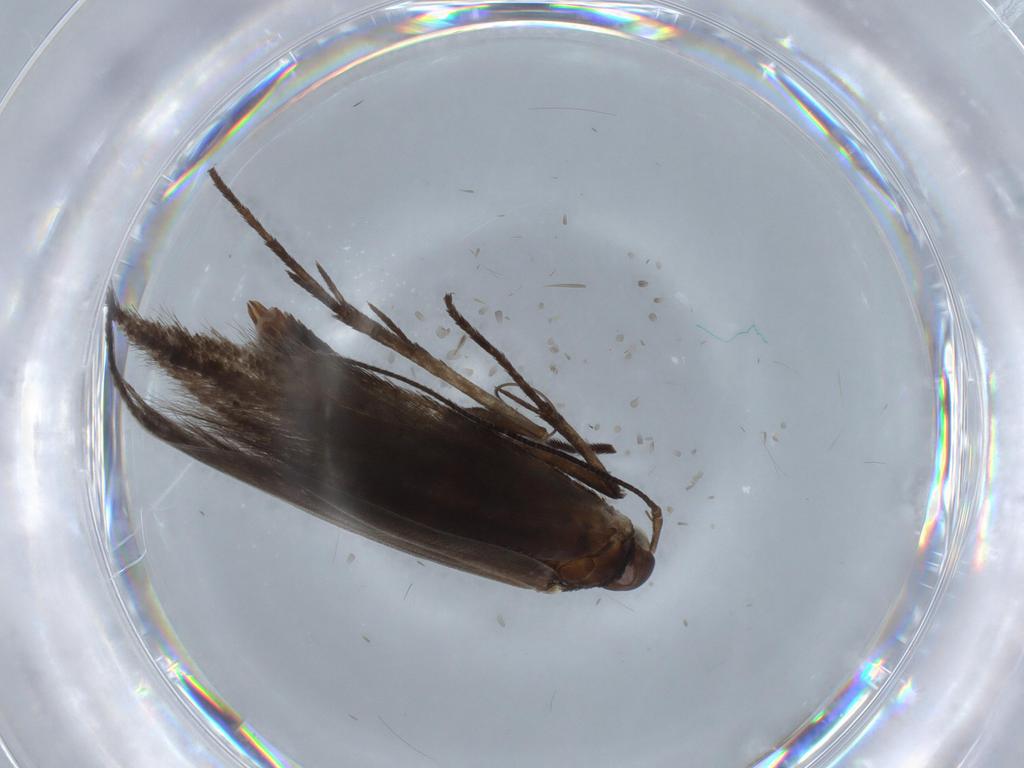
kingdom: Animalia
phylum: Arthropoda
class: Insecta
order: Lepidoptera
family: Coleophoridae
